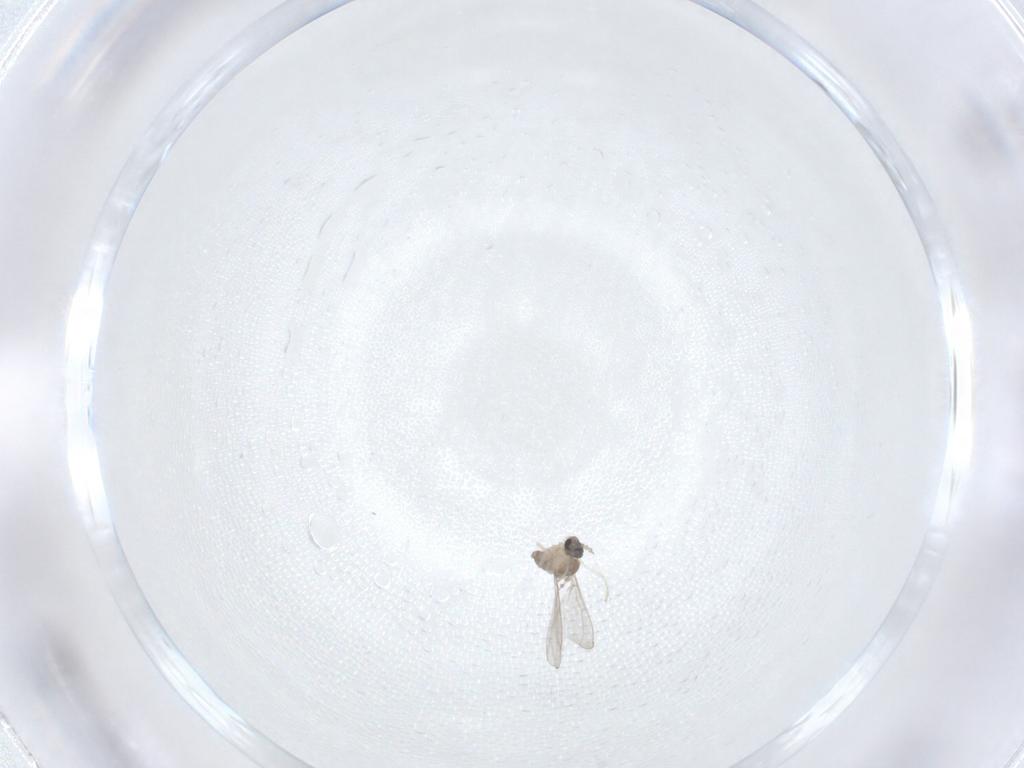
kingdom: Animalia
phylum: Arthropoda
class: Insecta
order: Diptera
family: Cecidomyiidae
